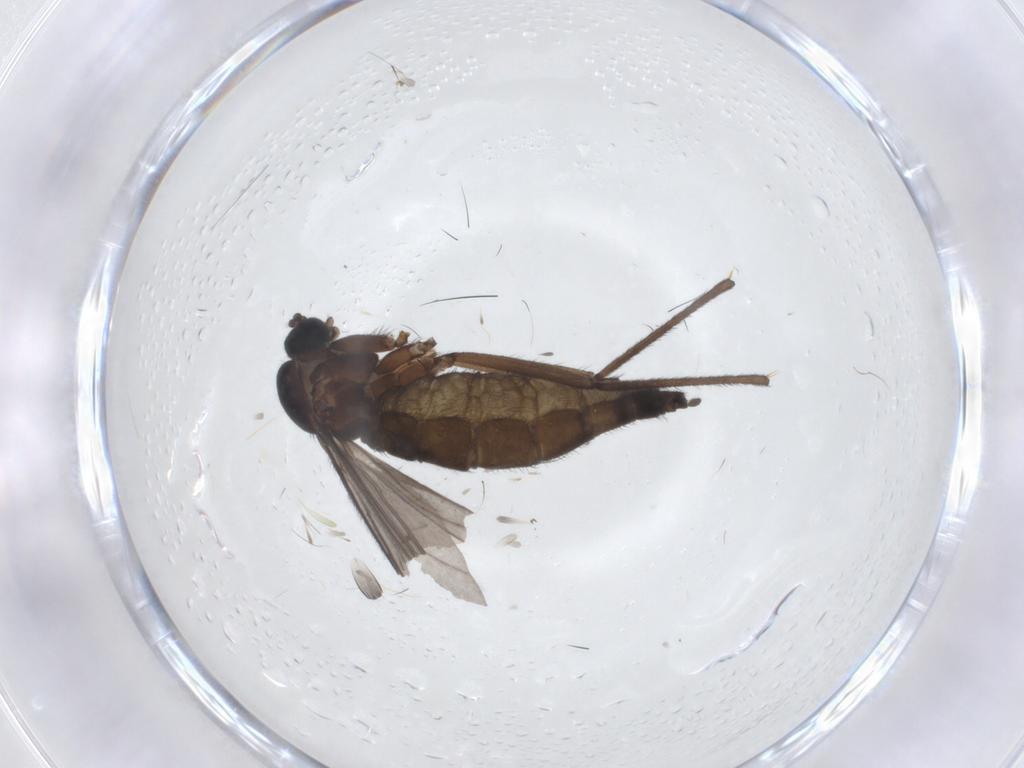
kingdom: Animalia
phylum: Arthropoda
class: Insecta
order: Diptera
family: Sciaridae
